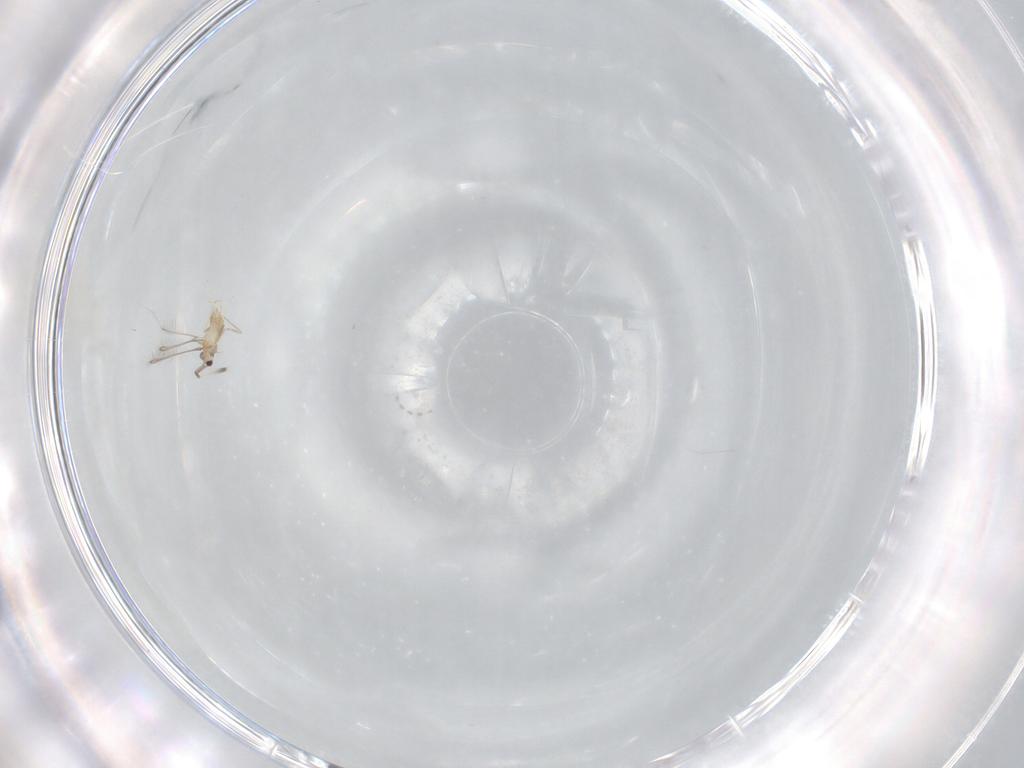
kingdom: Animalia
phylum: Arthropoda
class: Insecta
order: Hymenoptera
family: Mymaridae
